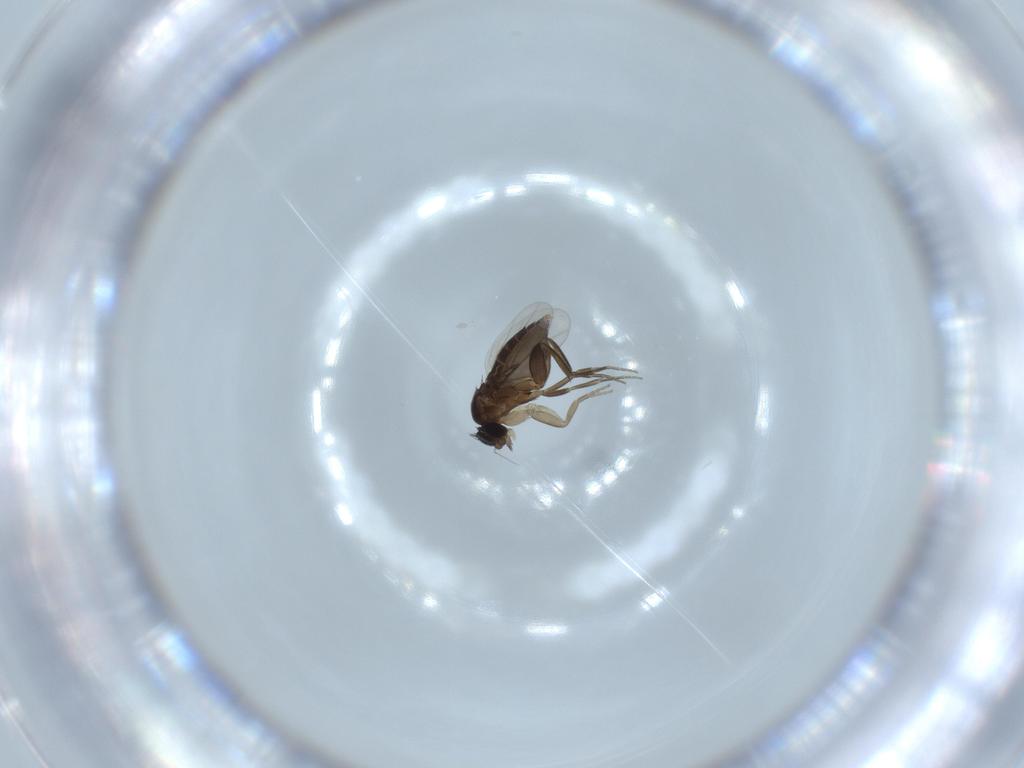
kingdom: Animalia
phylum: Arthropoda
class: Insecta
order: Diptera
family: Phoridae
